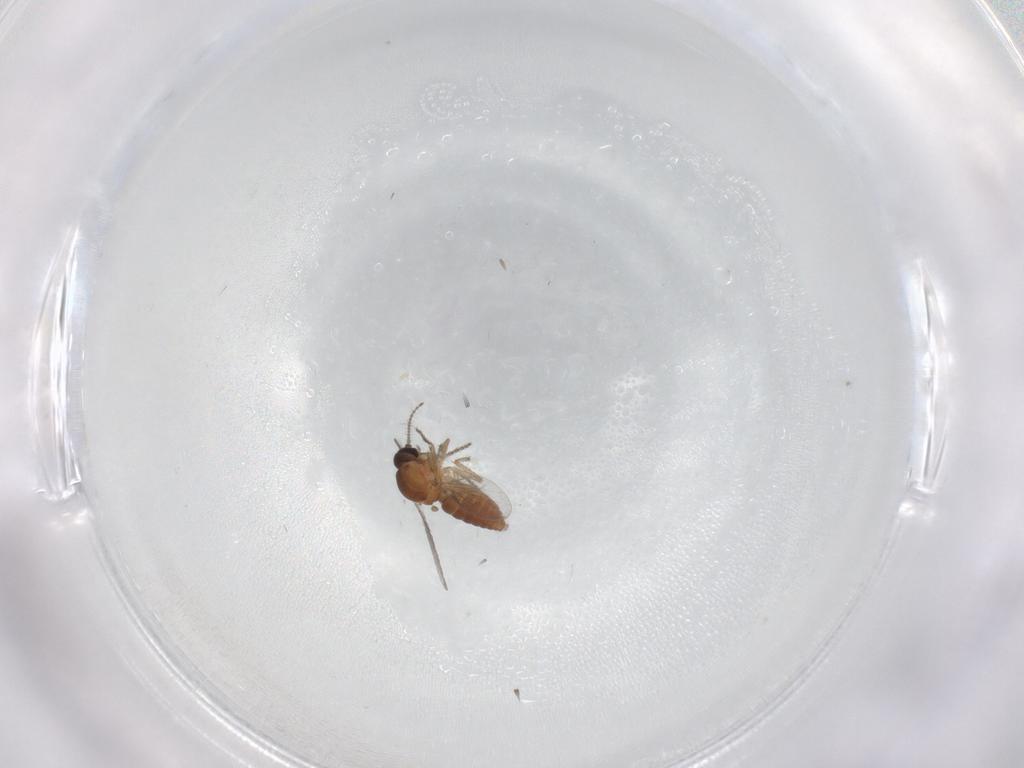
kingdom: Animalia
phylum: Arthropoda
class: Insecta
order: Diptera
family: Ceratopogonidae
